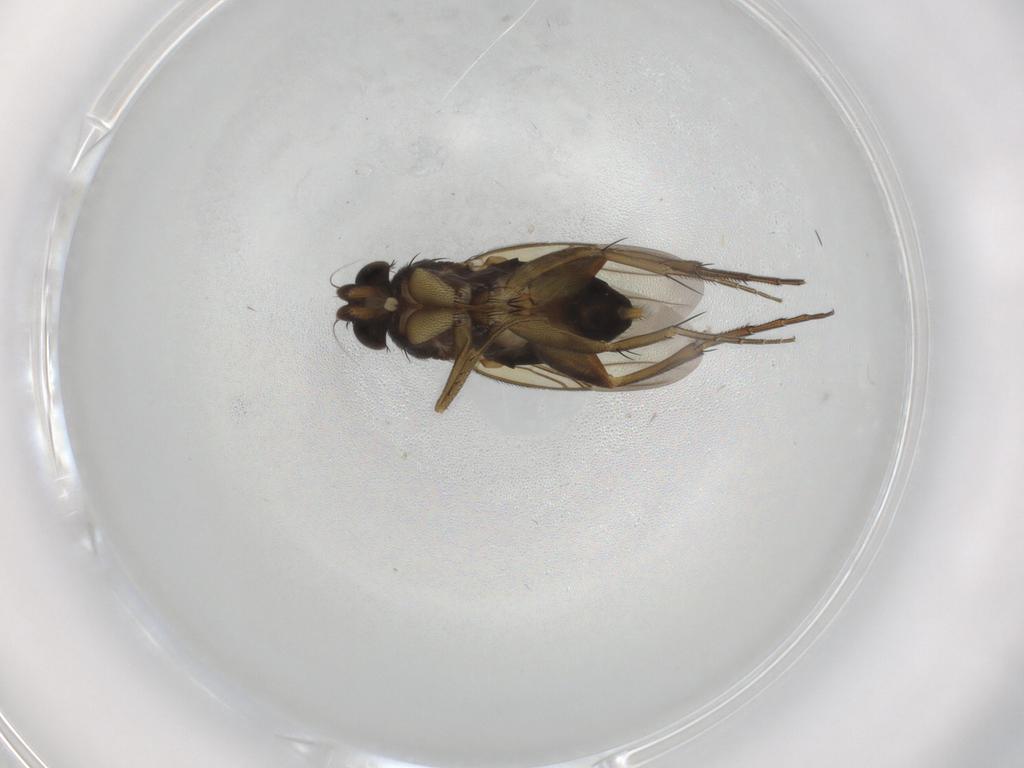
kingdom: Animalia
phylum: Arthropoda
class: Insecta
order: Diptera
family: Phoridae
